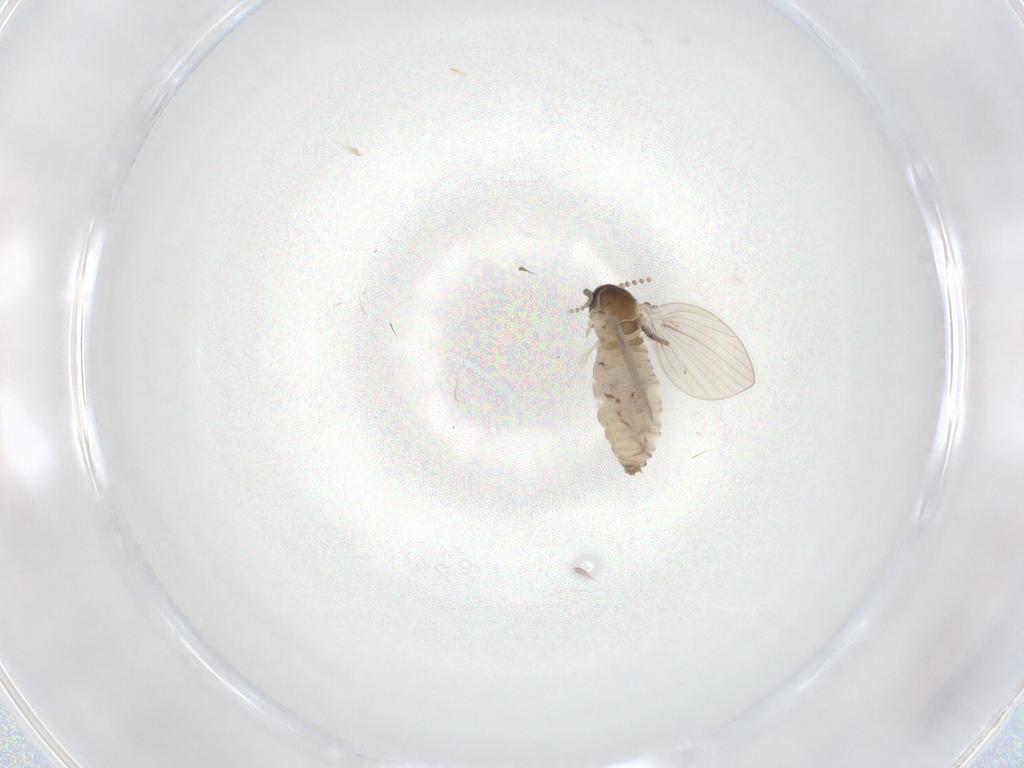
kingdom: Animalia
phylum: Arthropoda
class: Insecta
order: Diptera
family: Psychodidae
